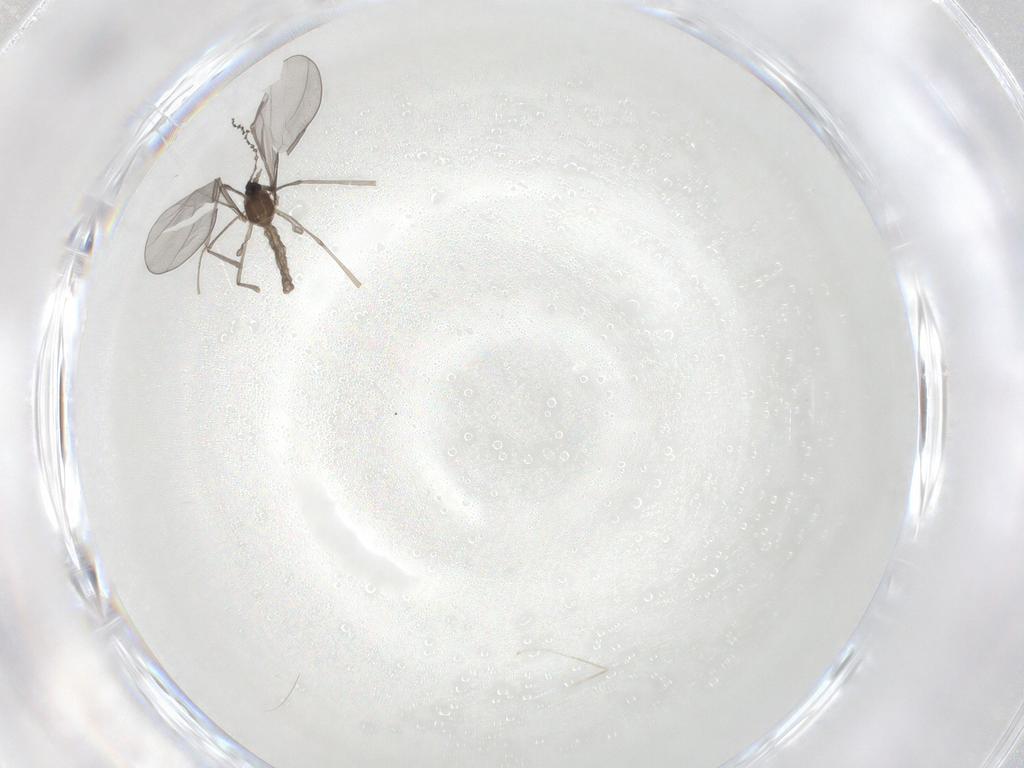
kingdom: Animalia
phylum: Arthropoda
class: Insecta
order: Diptera
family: Cecidomyiidae
